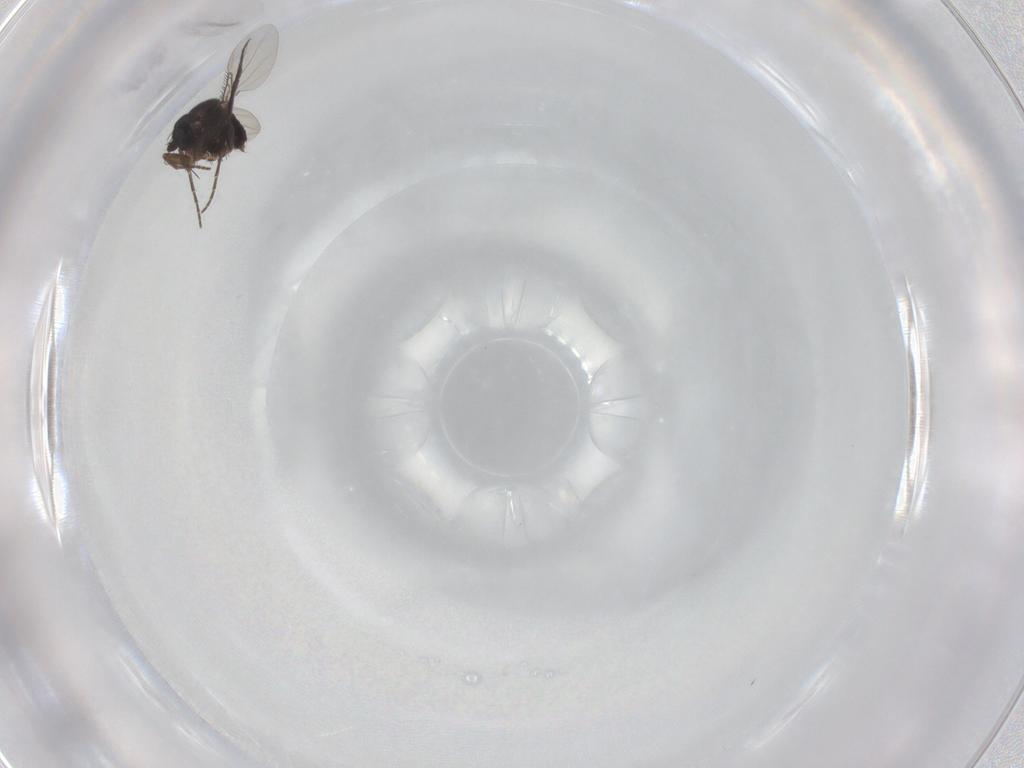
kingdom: Animalia
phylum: Arthropoda
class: Insecta
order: Diptera
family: Phoridae
